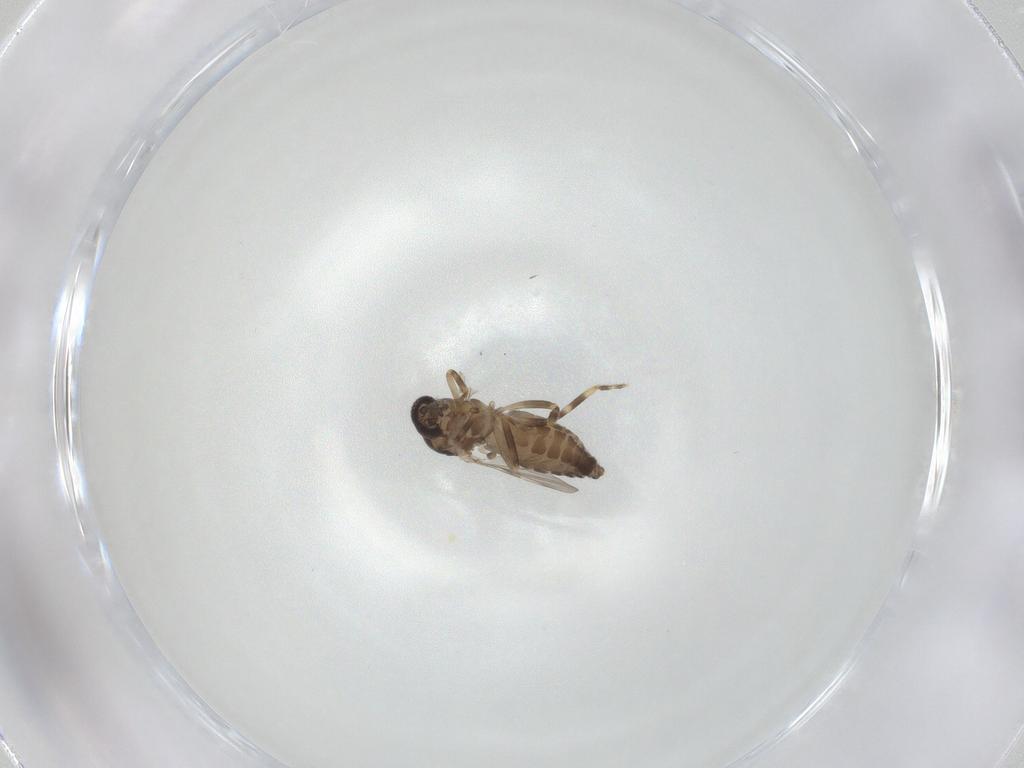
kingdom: Animalia
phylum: Arthropoda
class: Insecta
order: Diptera
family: Ceratopogonidae
